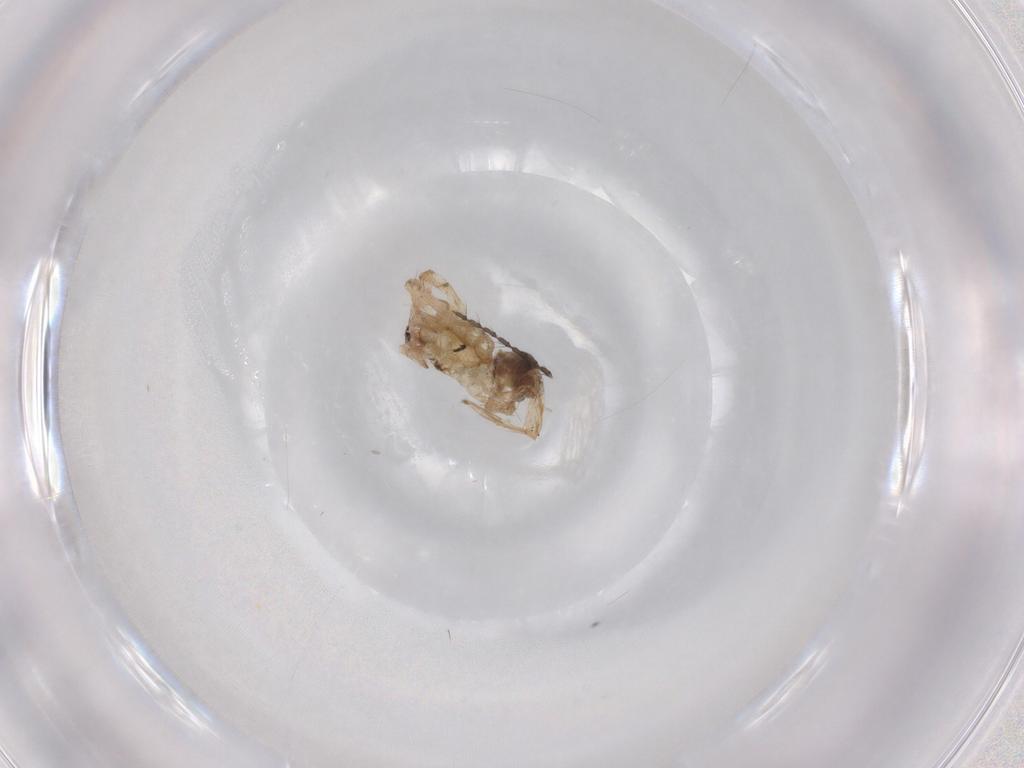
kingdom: Animalia
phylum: Arthropoda
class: Arachnida
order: Araneae
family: Anyphaenidae
